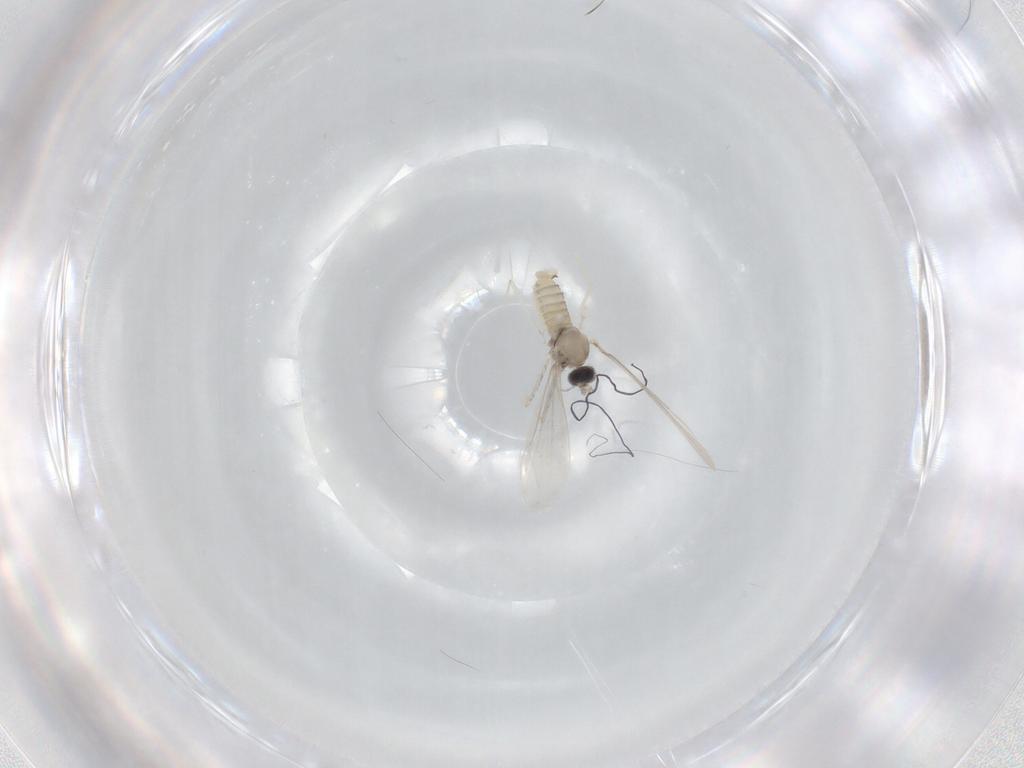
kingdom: Animalia
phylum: Arthropoda
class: Insecta
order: Diptera
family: Cecidomyiidae
